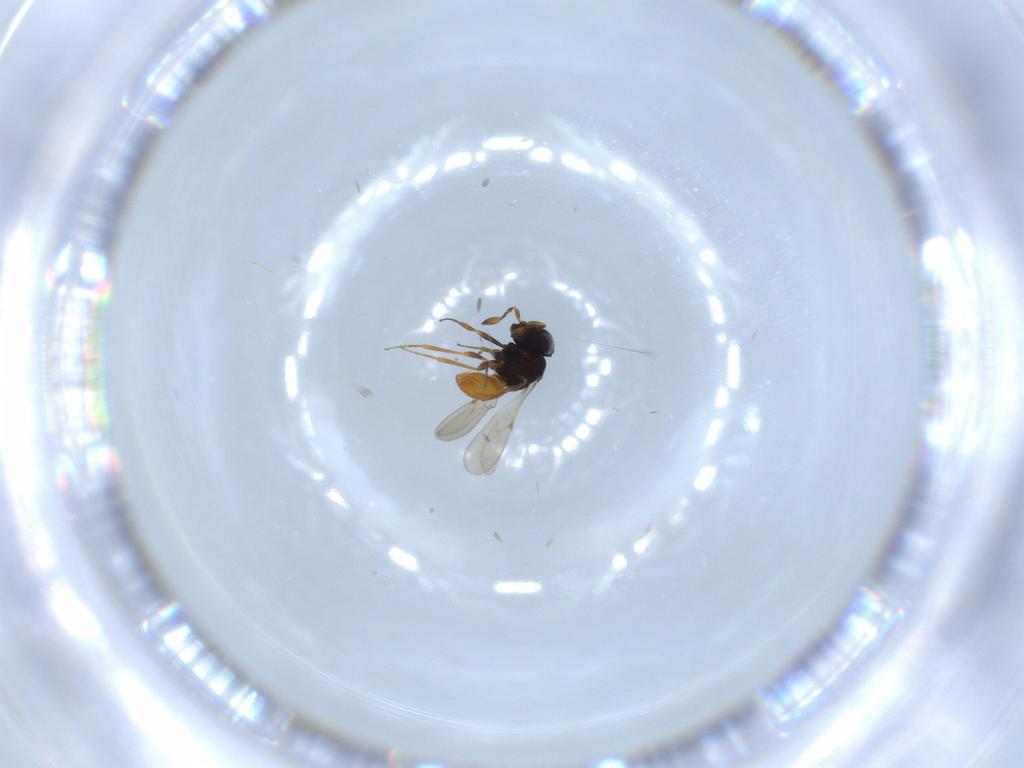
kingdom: Animalia
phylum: Arthropoda
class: Insecta
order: Hymenoptera
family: Scelionidae
